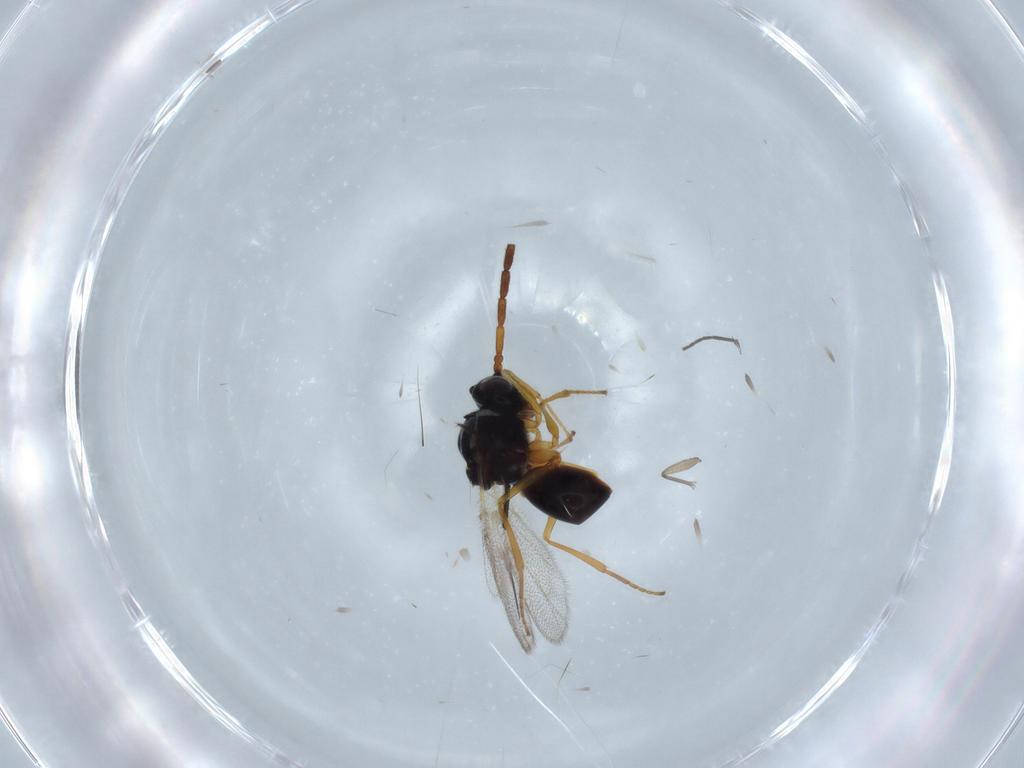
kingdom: Animalia
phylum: Arthropoda
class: Insecta
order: Hymenoptera
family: Figitidae
